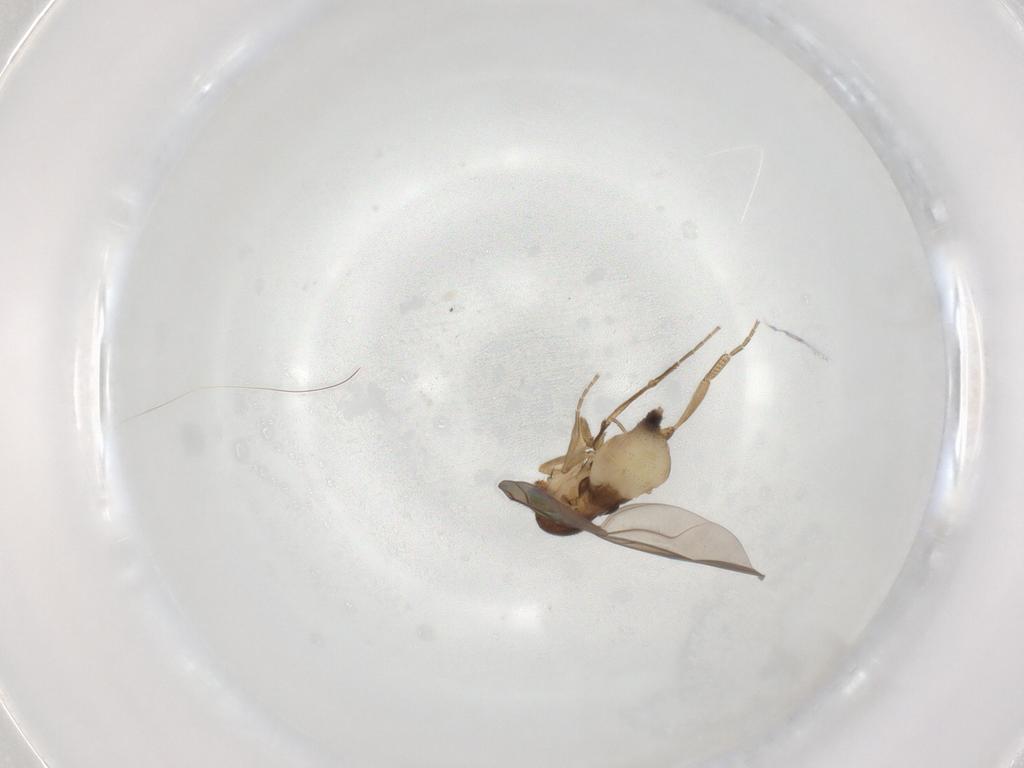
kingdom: Animalia
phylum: Arthropoda
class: Insecta
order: Diptera
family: Phoridae
